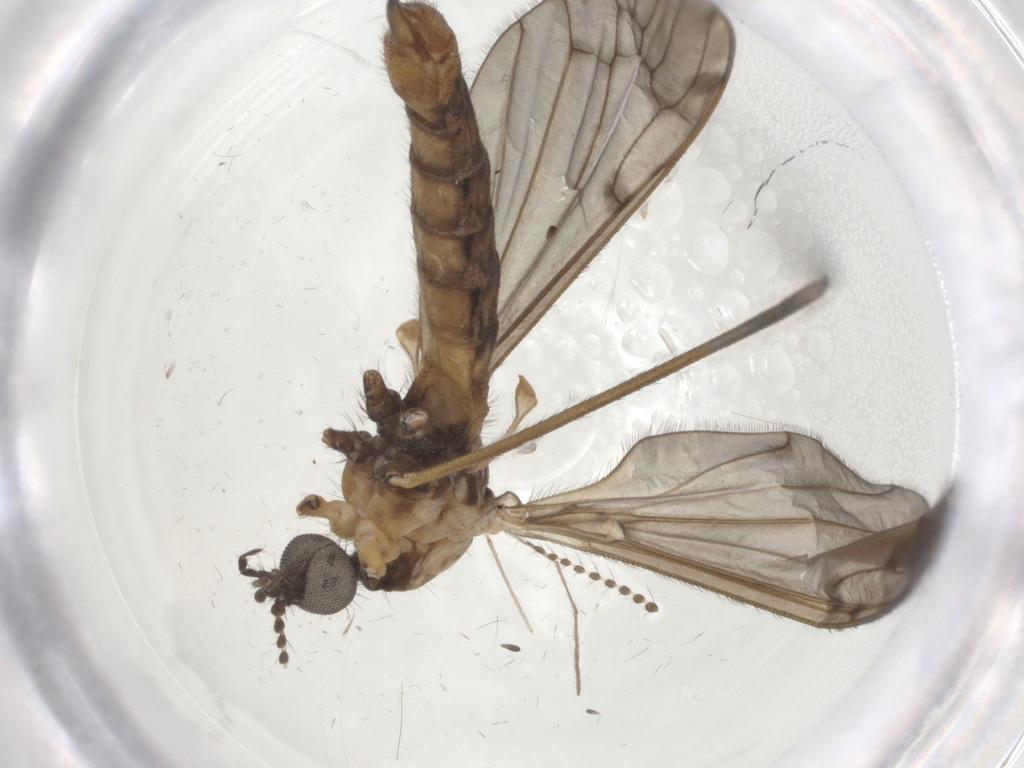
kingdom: Animalia
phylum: Arthropoda
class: Insecta
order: Diptera
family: Limoniidae
